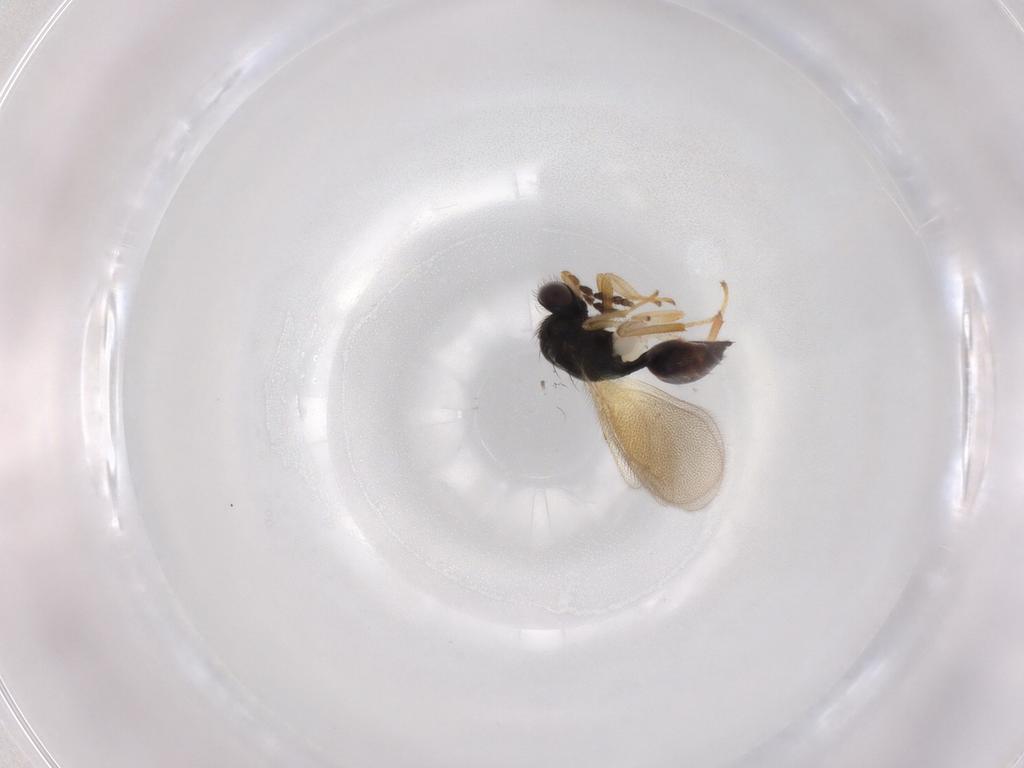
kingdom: Animalia
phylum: Arthropoda
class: Insecta
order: Hymenoptera
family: Eulophidae
